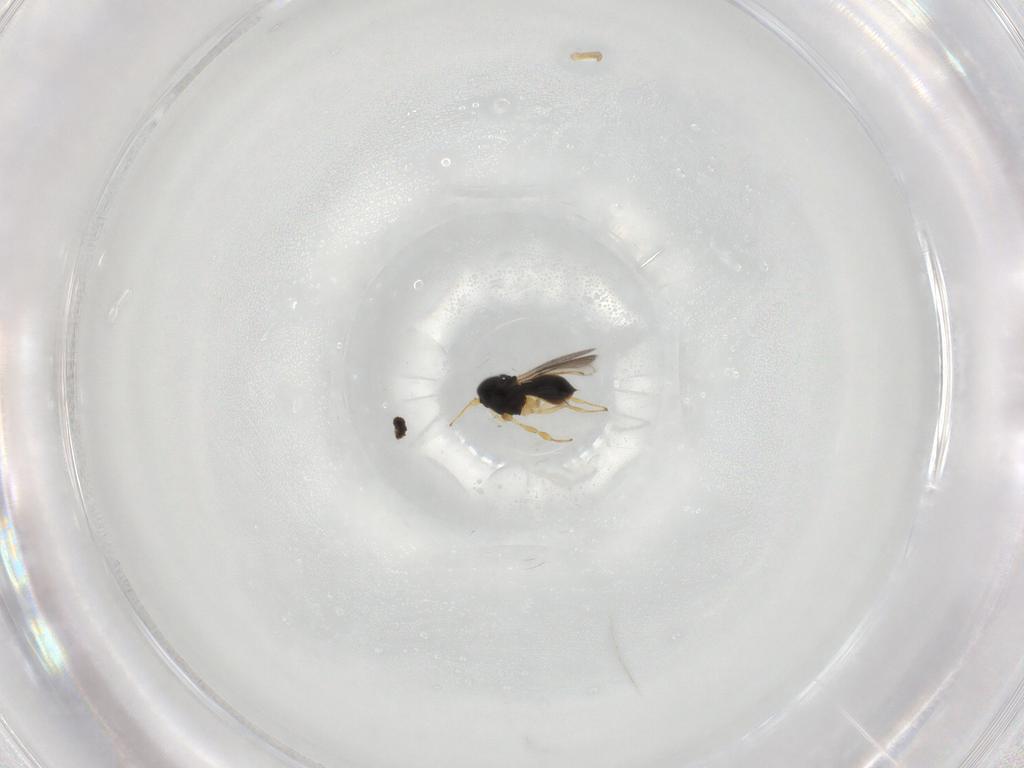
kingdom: Animalia
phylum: Arthropoda
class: Insecta
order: Hymenoptera
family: Scelionidae
